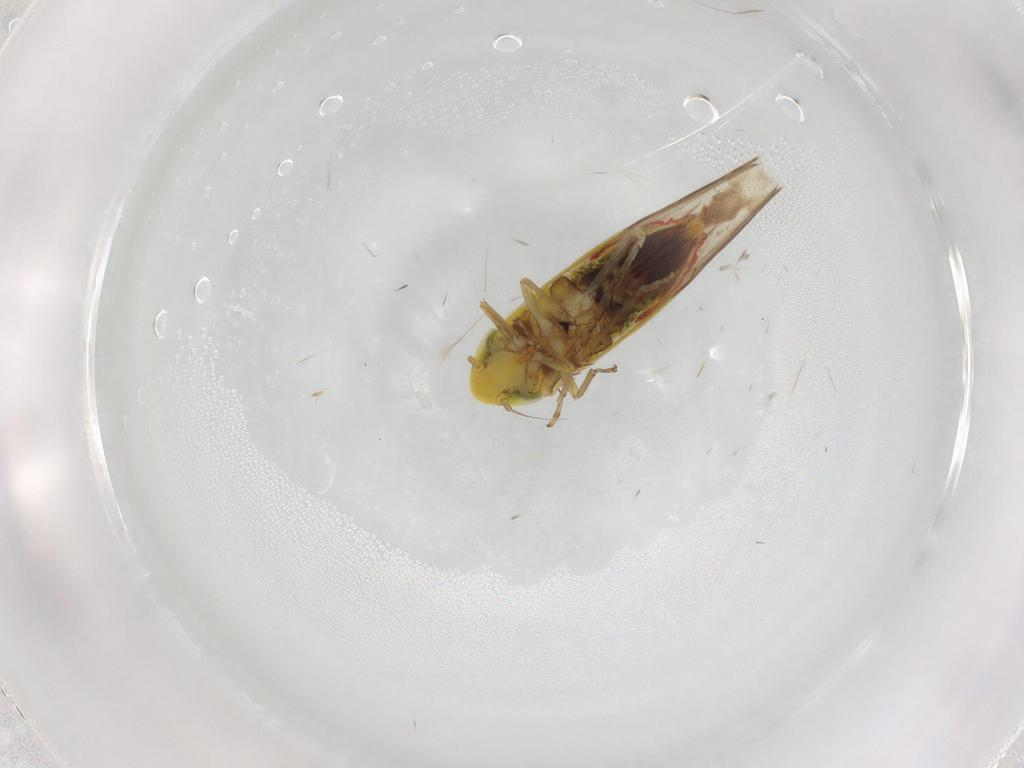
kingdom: Animalia
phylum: Arthropoda
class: Insecta
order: Hemiptera
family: Cicadellidae
